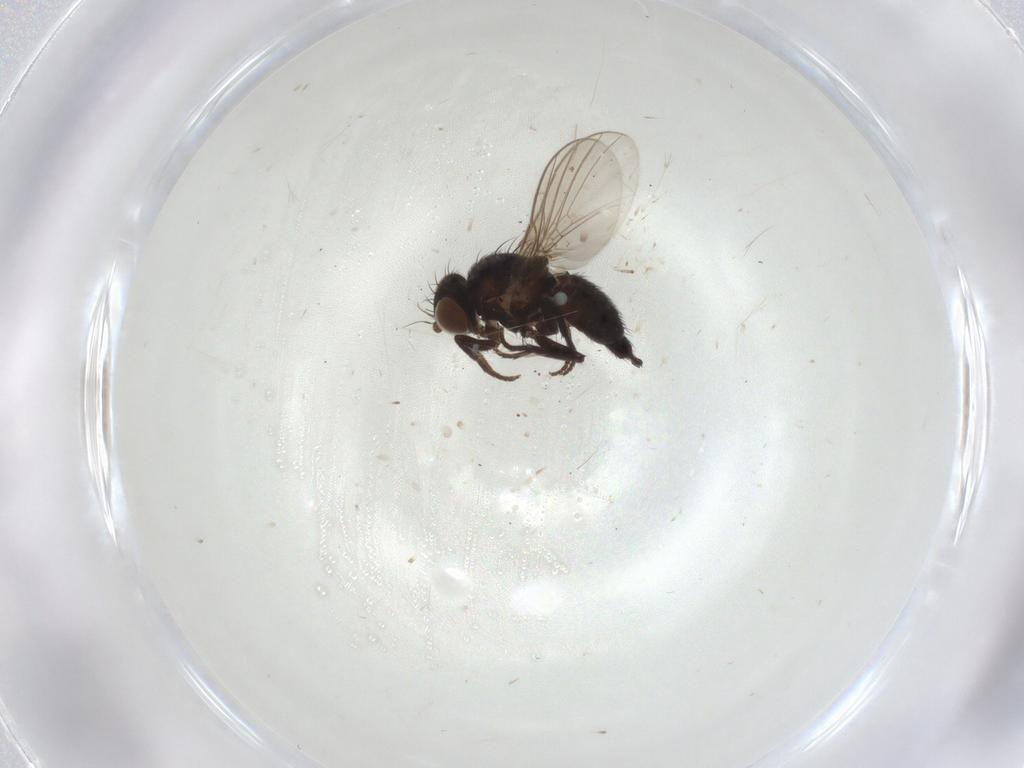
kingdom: Animalia
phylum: Arthropoda
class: Insecta
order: Diptera
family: Agromyzidae
